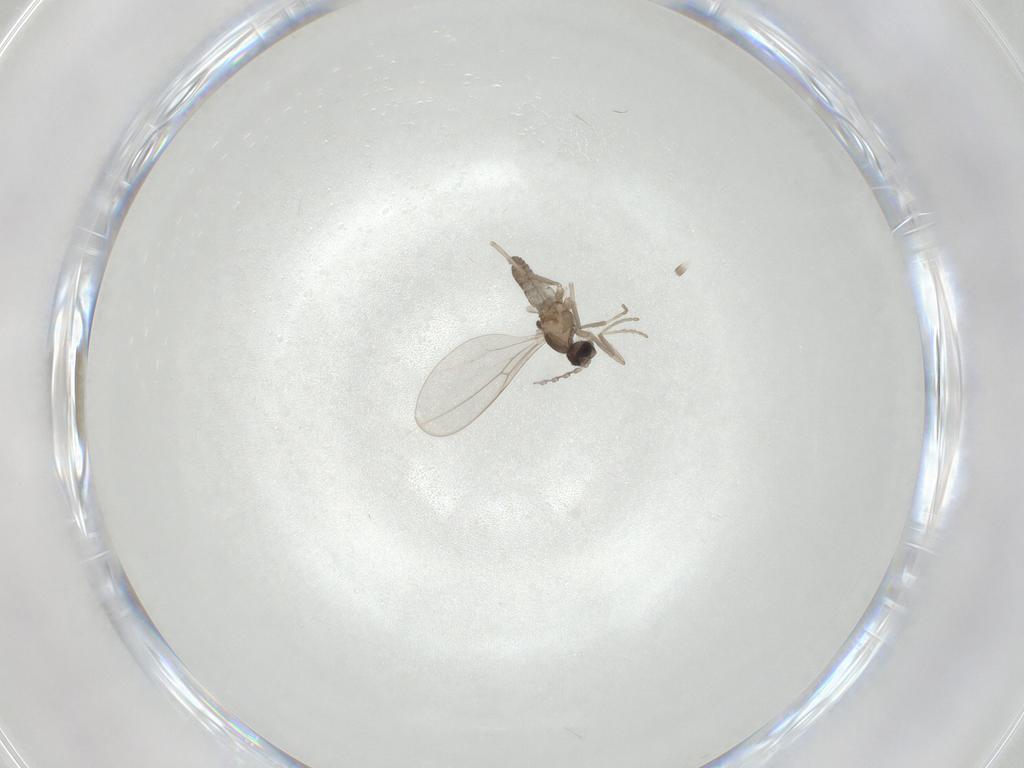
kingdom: Animalia
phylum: Arthropoda
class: Insecta
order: Diptera
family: Cecidomyiidae
